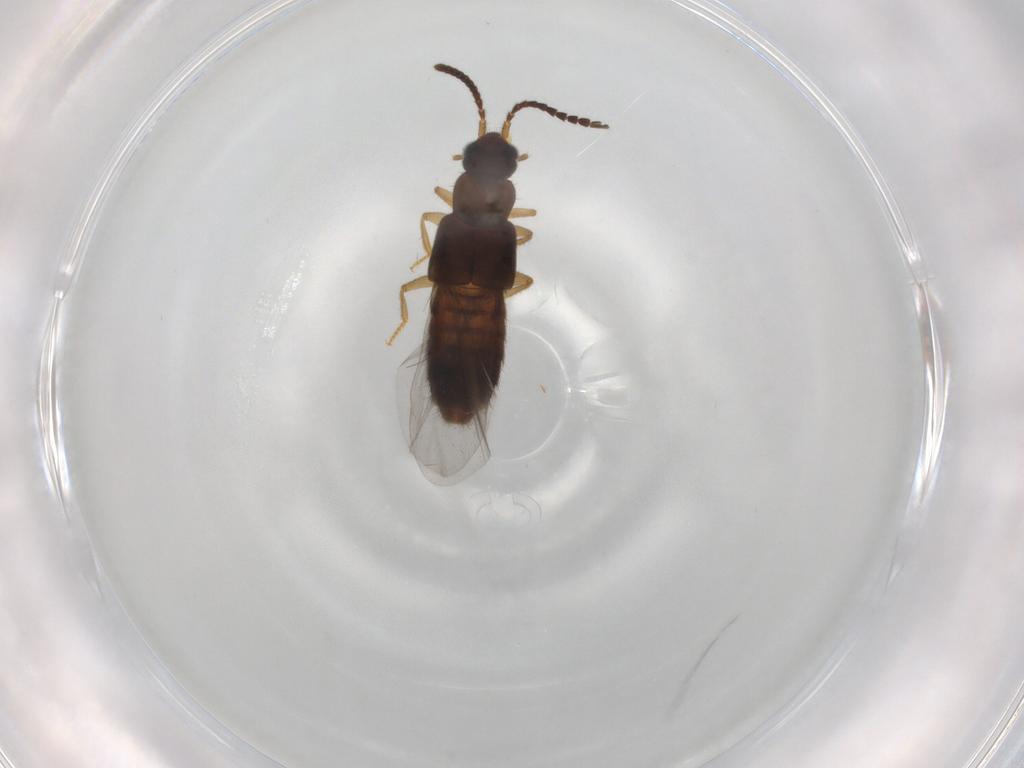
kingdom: Animalia
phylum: Arthropoda
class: Insecta
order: Coleoptera
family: Staphylinidae
